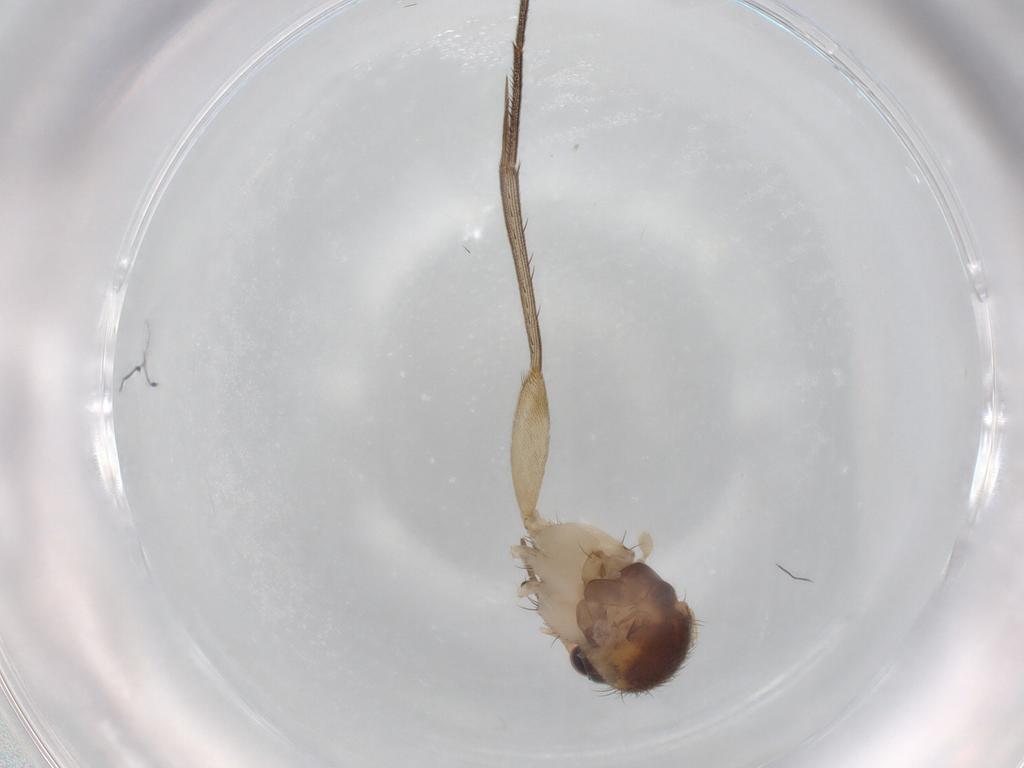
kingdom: Animalia
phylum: Arthropoda
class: Insecta
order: Diptera
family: Mycetophilidae
